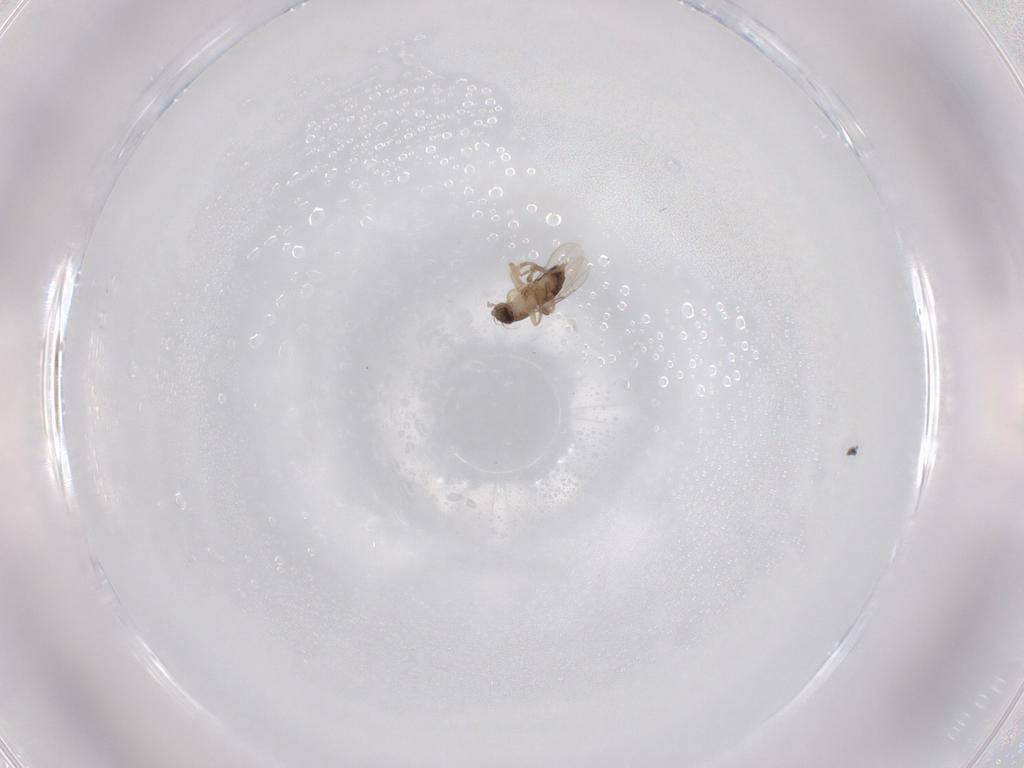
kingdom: Animalia
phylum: Arthropoda
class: Insecta
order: Diptera
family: Phoridae
